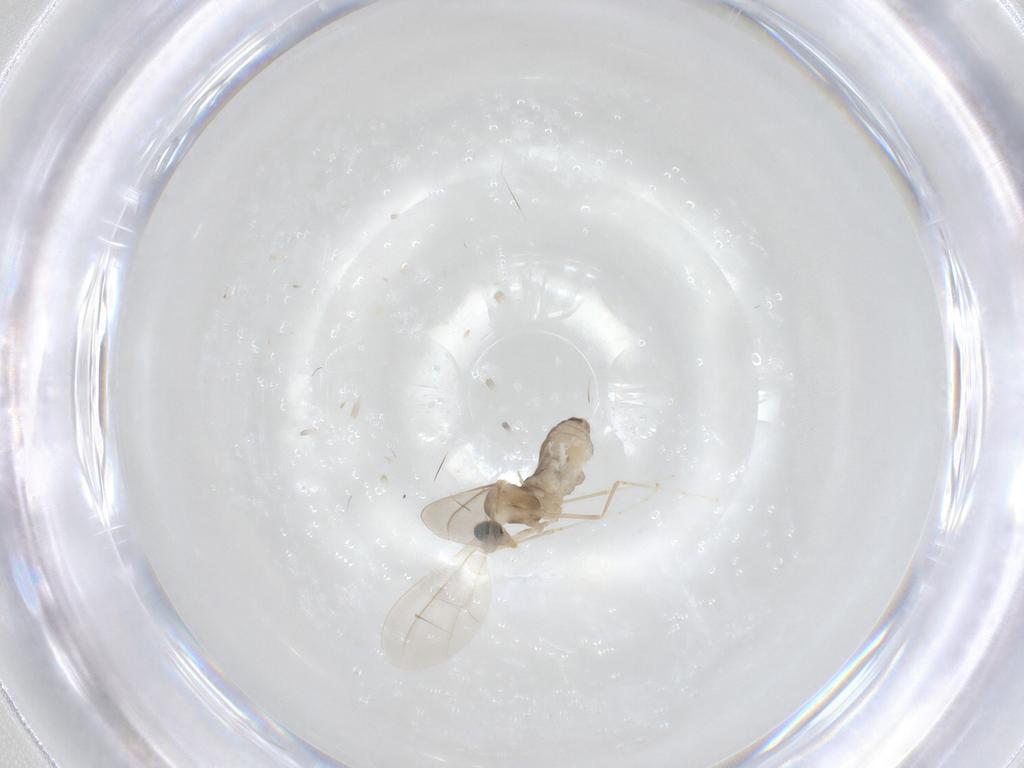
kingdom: Animalia
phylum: Arthropoda
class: Insecta
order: Diptera
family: Cecidomyiidae
